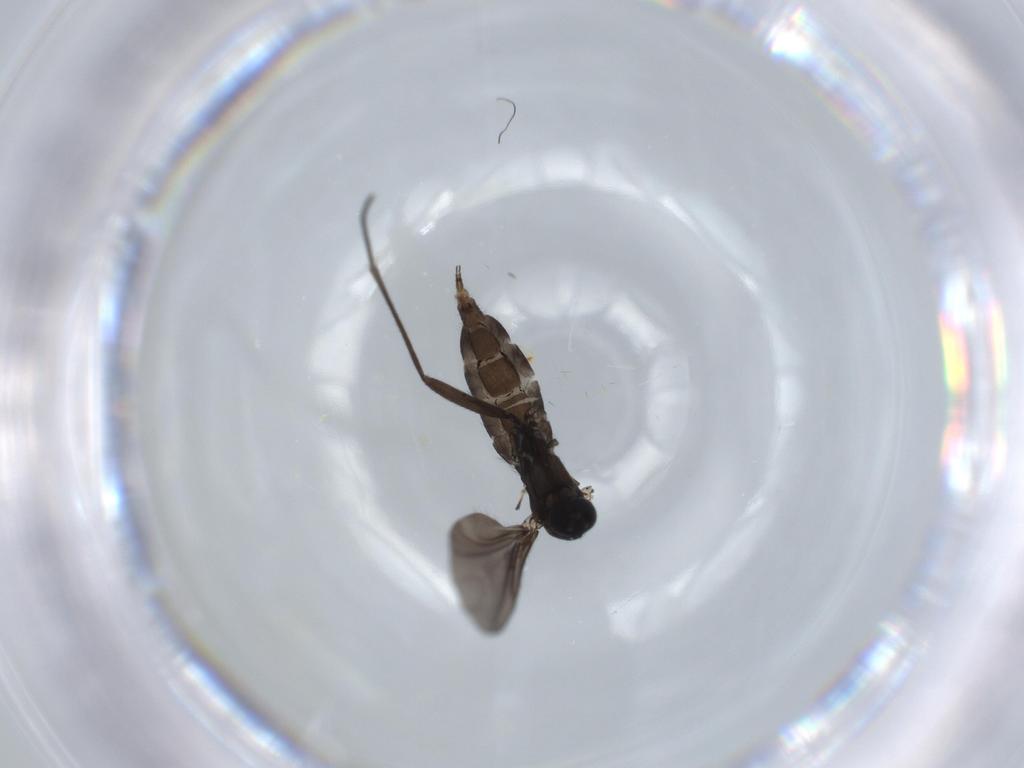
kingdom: Animalia
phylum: Arthropoda
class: Insecta
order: Diptera
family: Sciaridae
